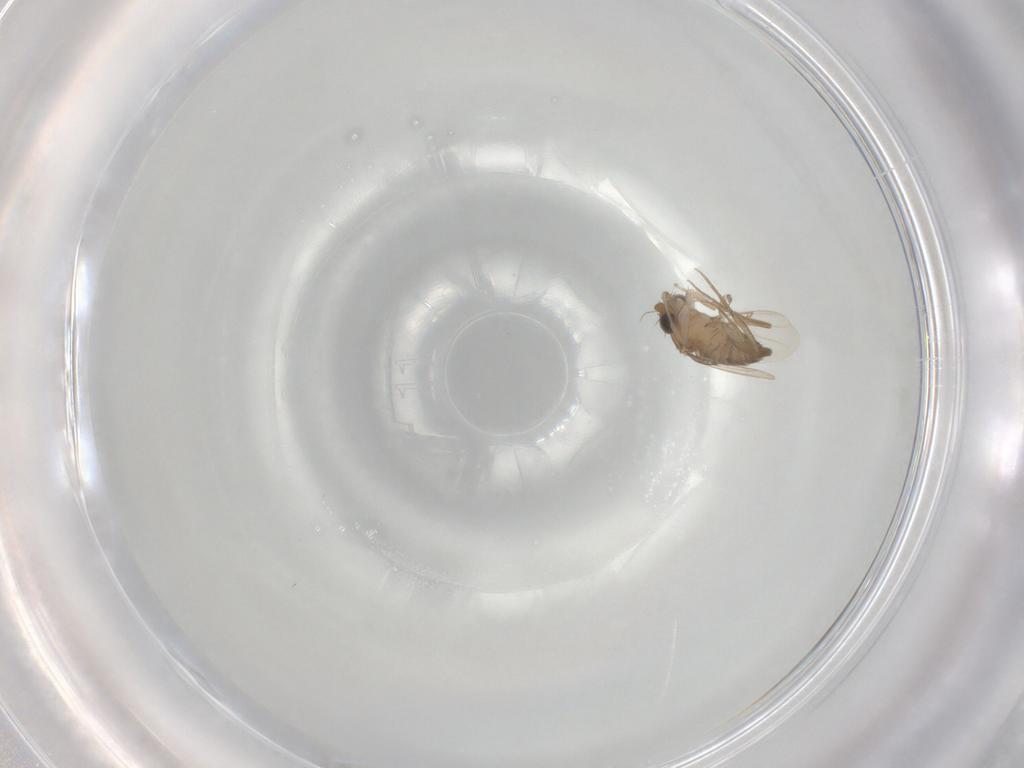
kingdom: Animalia
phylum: Arthropoda
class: Insecta
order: Diptera
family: Phoridae
